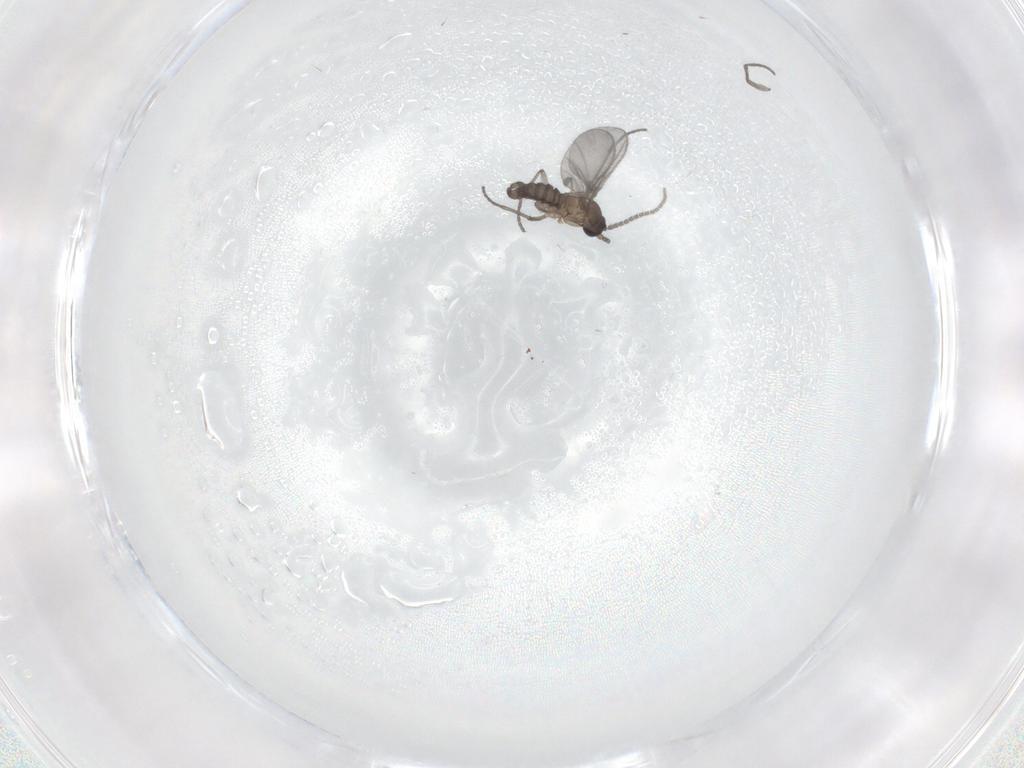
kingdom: Animalia
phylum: Arthropoda
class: Insecta
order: Diptera
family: Sciaridae
